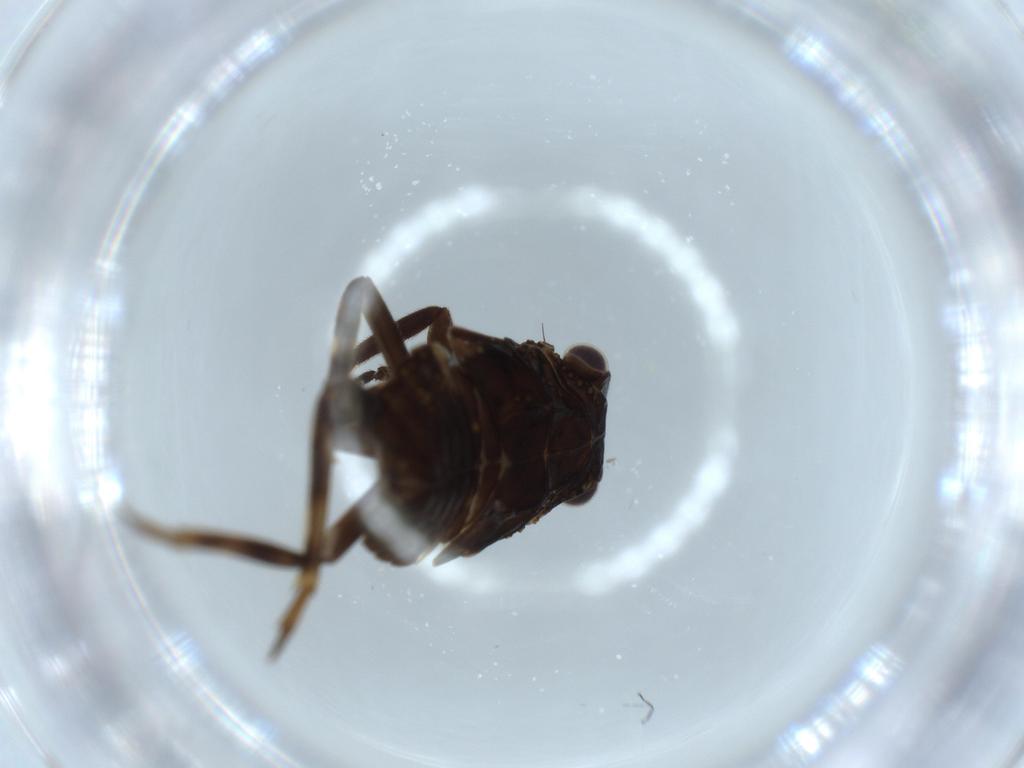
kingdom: Animalia
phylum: Arthropoda
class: Insecta
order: Hemiptera
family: Fulgoridae
